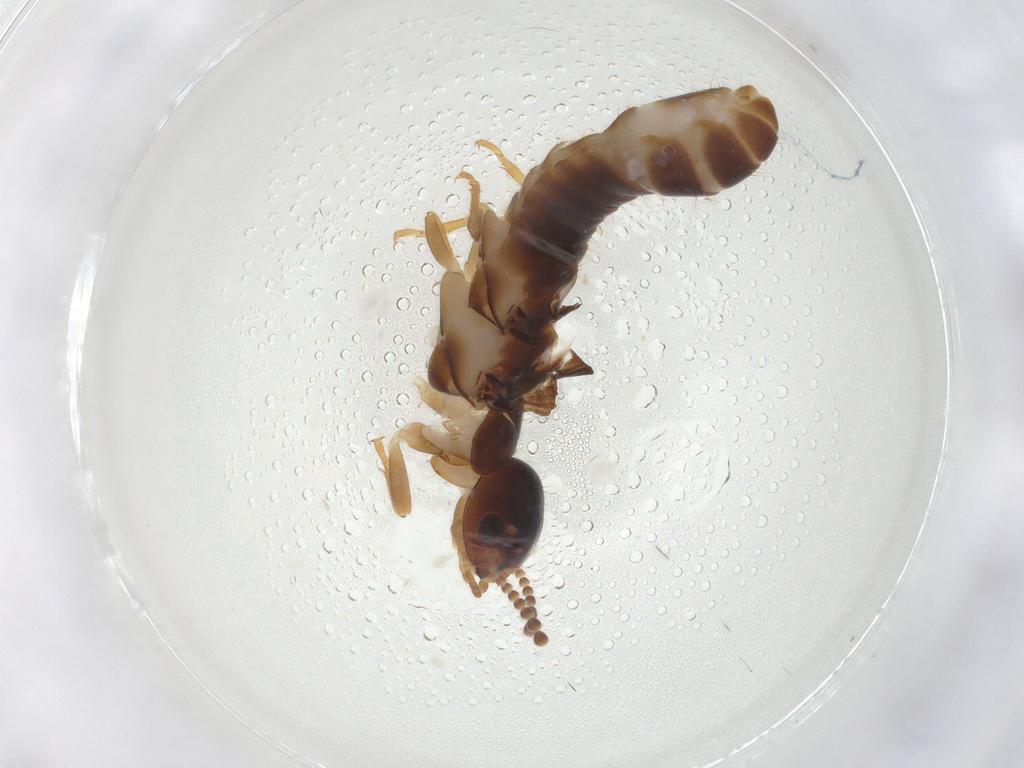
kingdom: Animalia
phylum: Arthropoda
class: Insecta
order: Blattodea
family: Kalotermitidae
